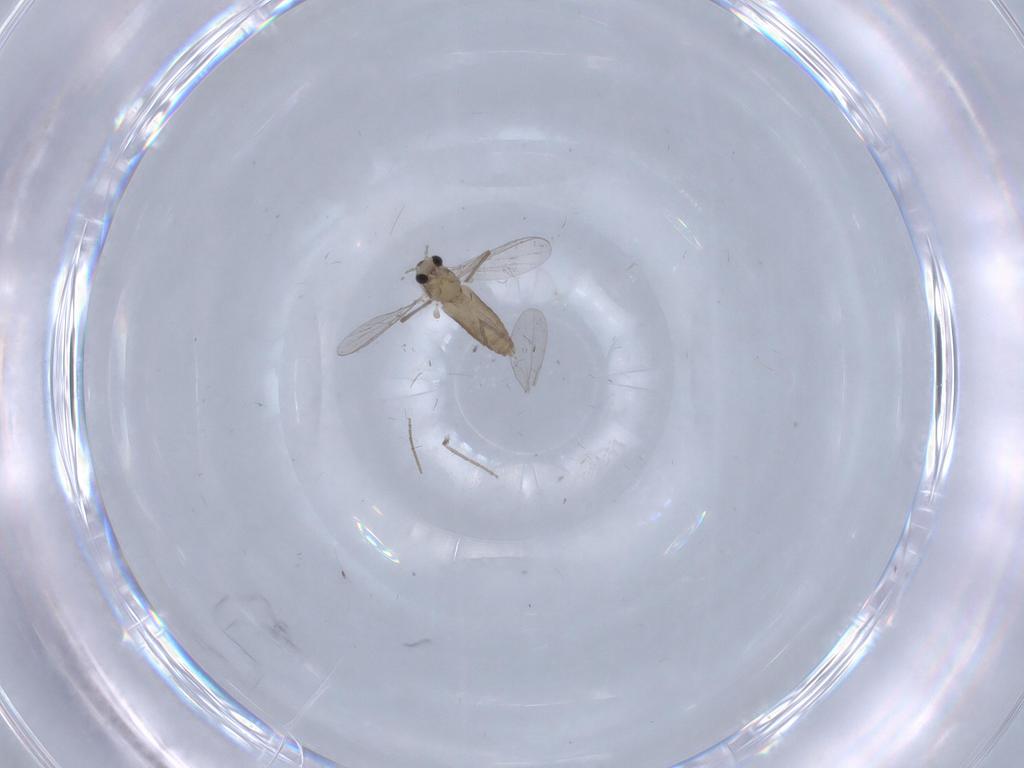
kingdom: Animalia
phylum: Arthropoda
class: Insecta
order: Diptera
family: Chironomidae
